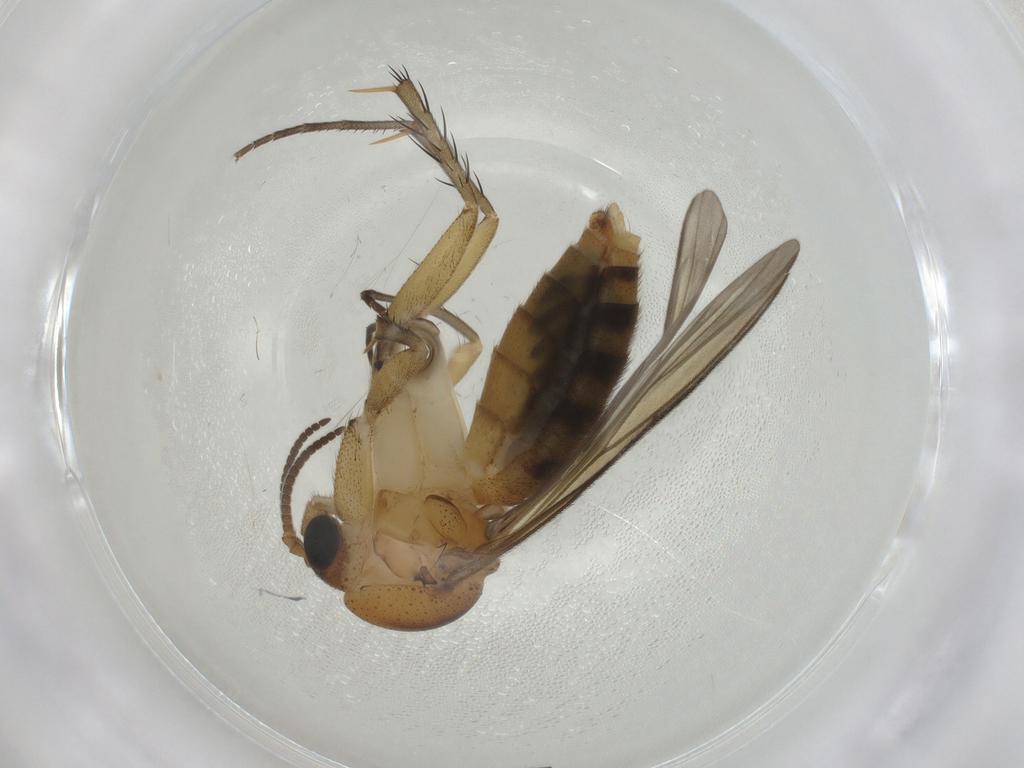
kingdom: Animalia
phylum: Arthropoda
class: Insecta
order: Diptera
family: Mycetophilidae
